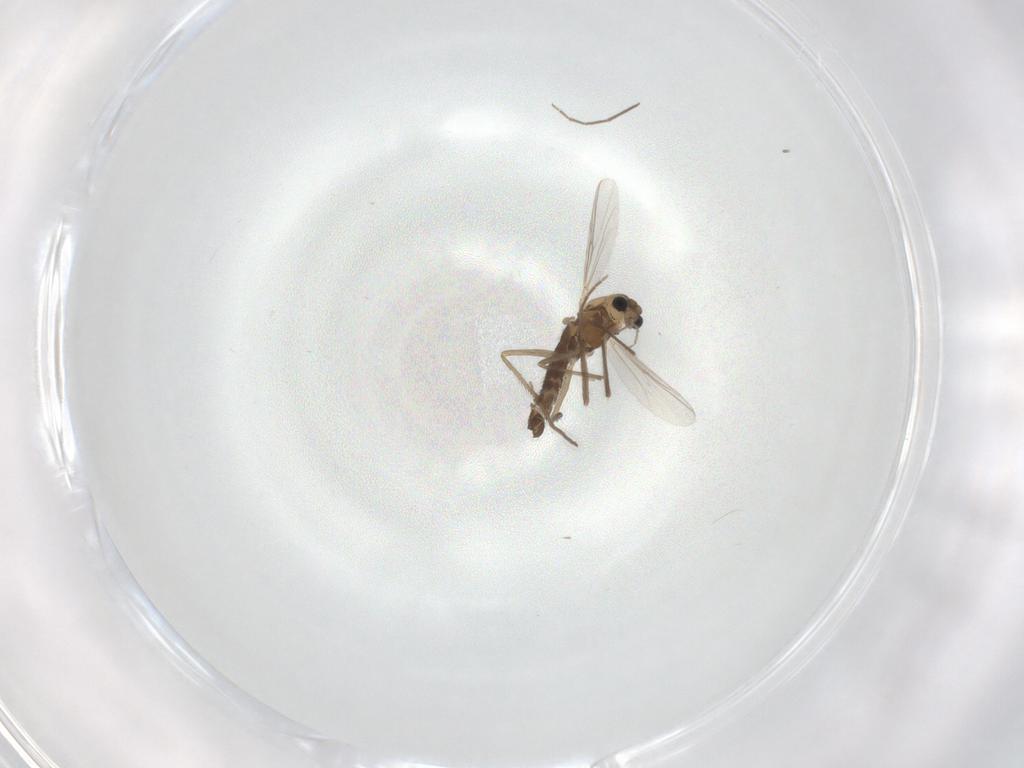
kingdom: Animalia
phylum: Arthropoda
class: Insecta
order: Diptera
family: Chironomidae
